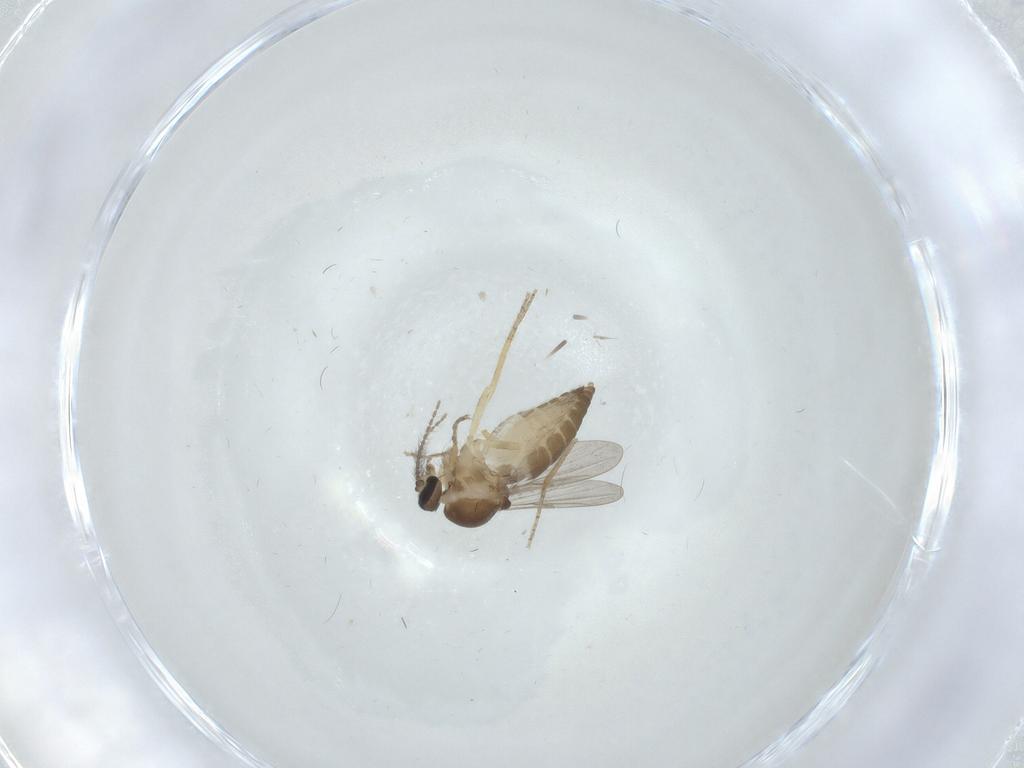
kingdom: Animalia
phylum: Arthropoda
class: Insecta
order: Diptera
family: Ceratopogonidae
